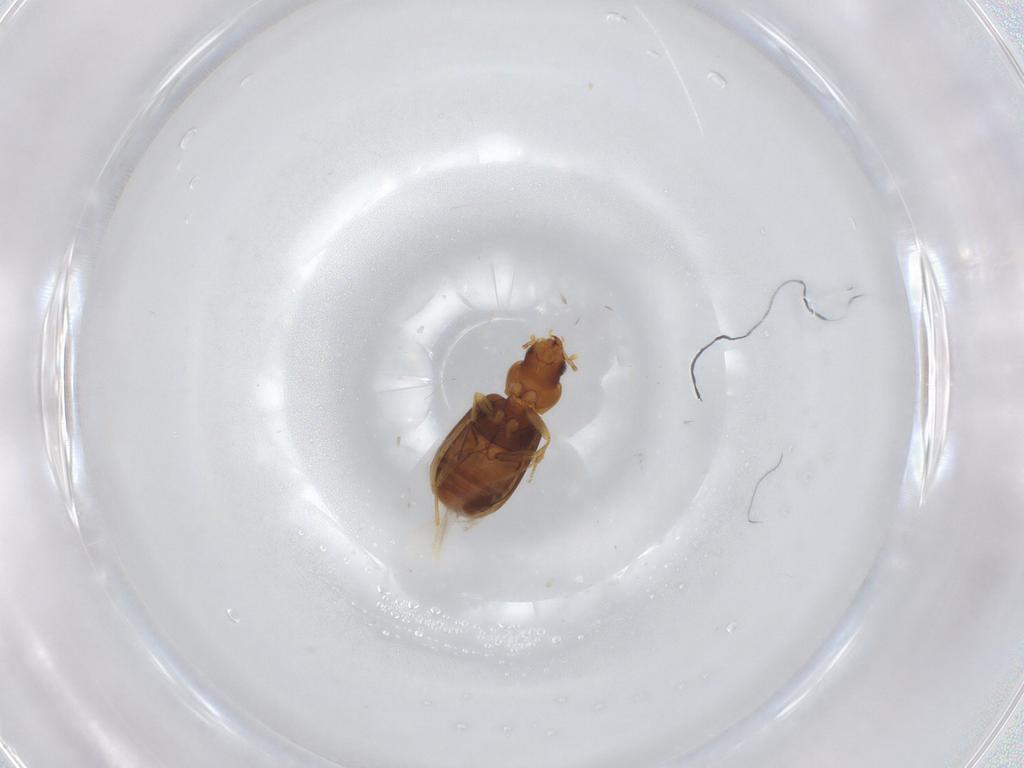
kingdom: Animalia
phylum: Arthropoda
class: Insecta
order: Coleoptera
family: Carabidae
